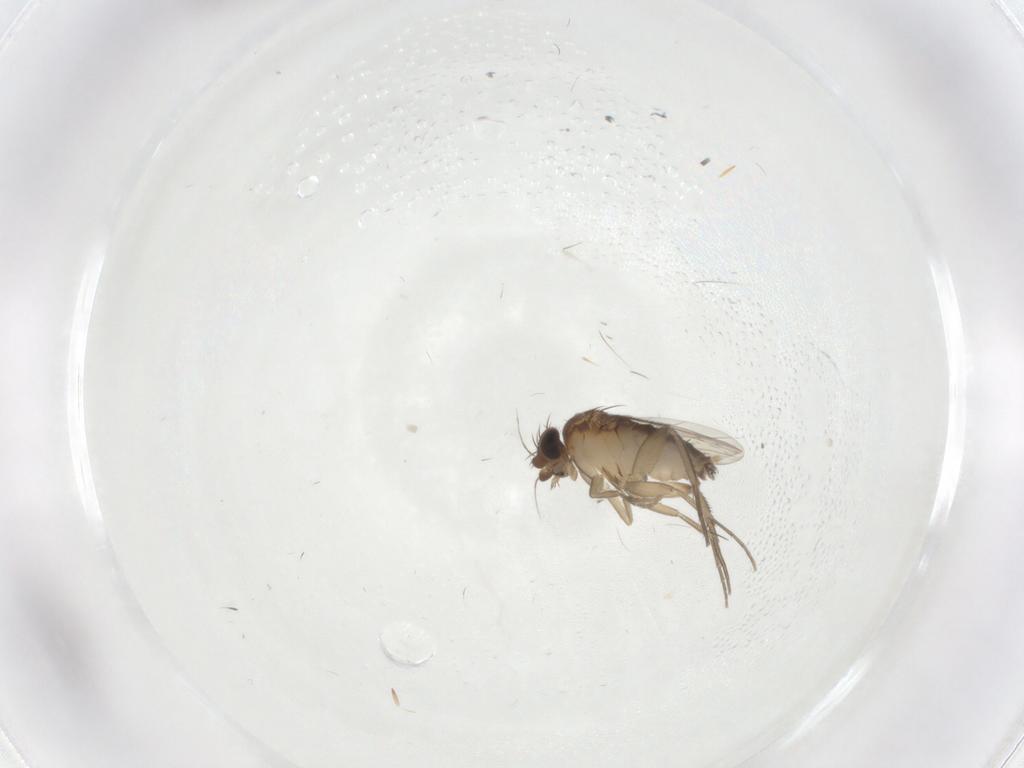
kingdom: Animalia
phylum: Arthropoda
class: Insecta
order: Diptera
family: Phoridae
